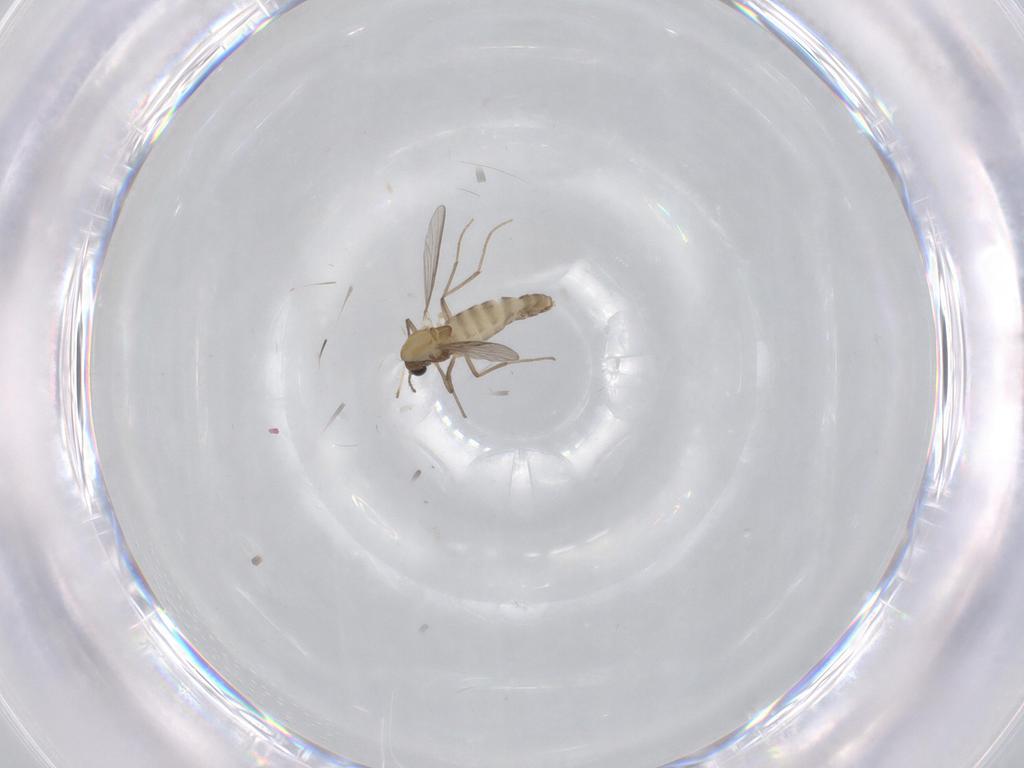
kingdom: Animalia
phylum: Arthropoda
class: Insecta
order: Diptera
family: Chironomidae
